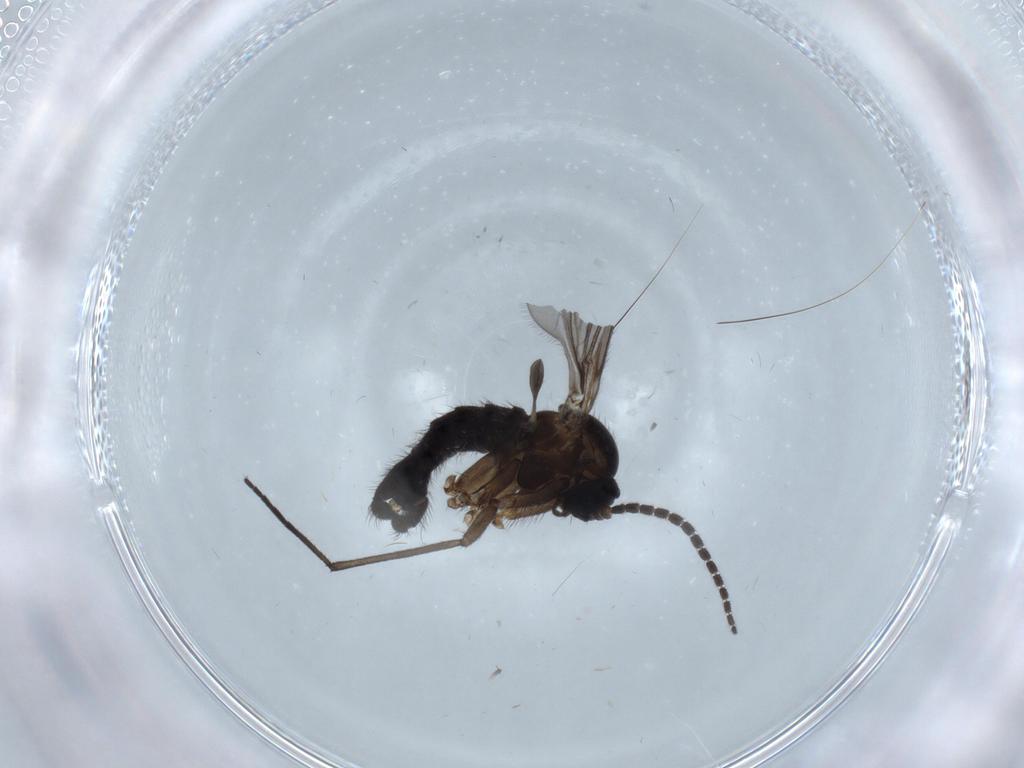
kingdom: Animalia
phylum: Arthropoda
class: Insecta
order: Diptera
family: Sciaridae
